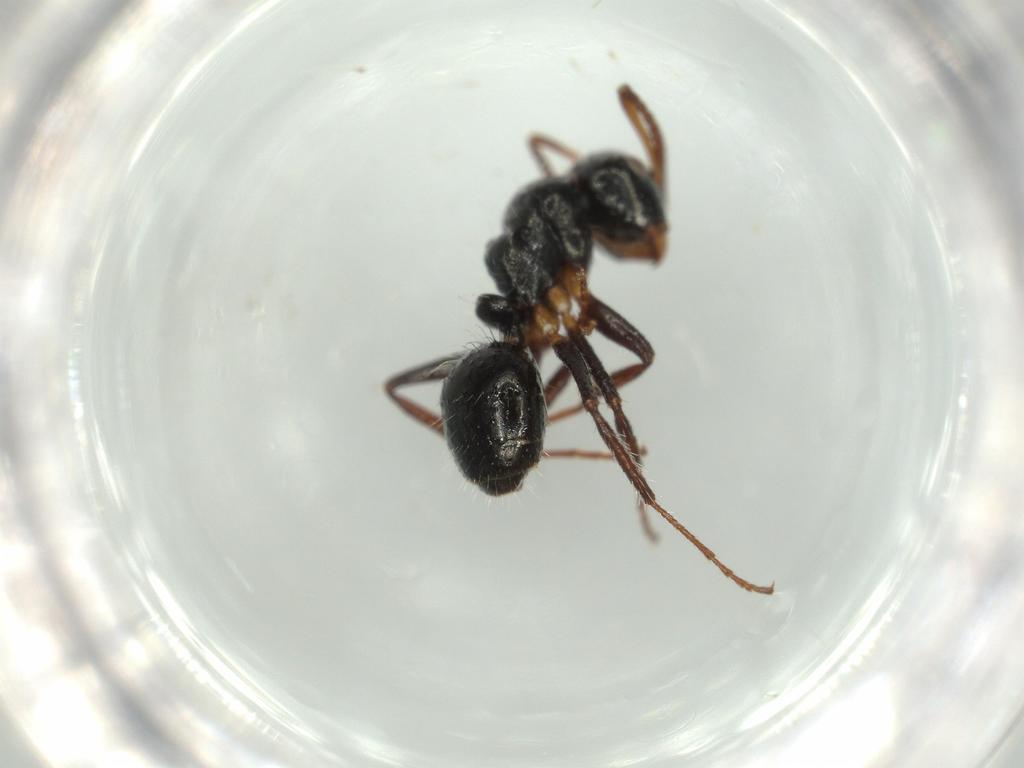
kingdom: Animalia
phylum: Arthropoda
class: Insecta
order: Hymenoptera
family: Formicidae
